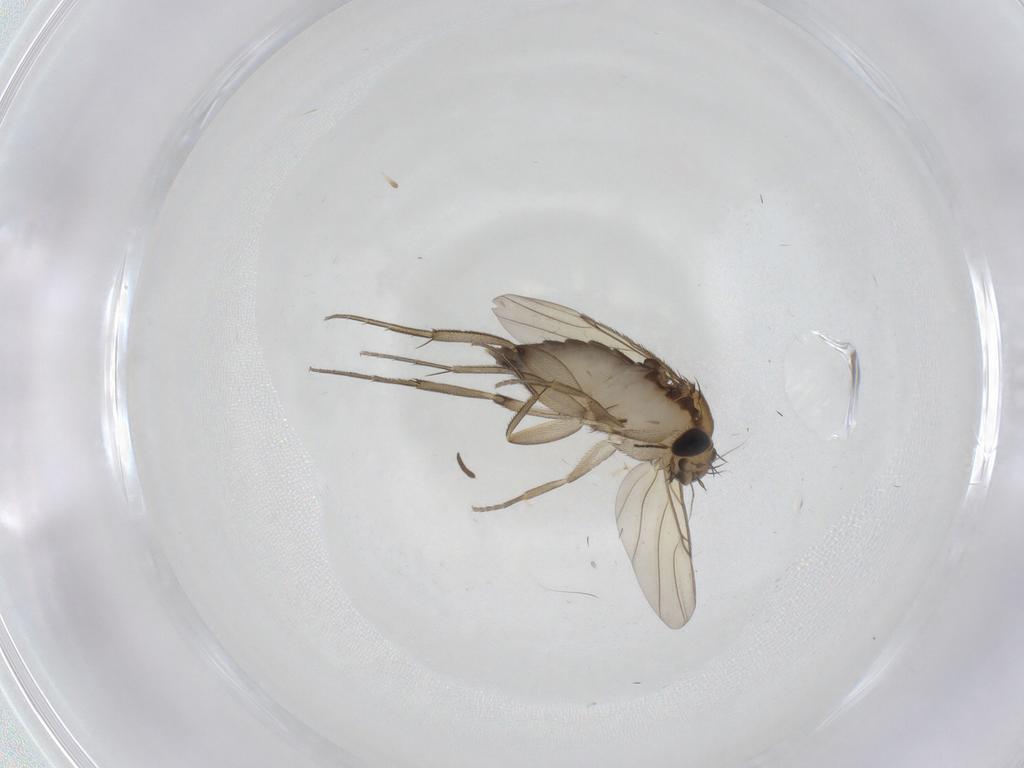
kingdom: Animalia
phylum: Arthropoda
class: Insecta
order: Diptera
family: Phoridae
